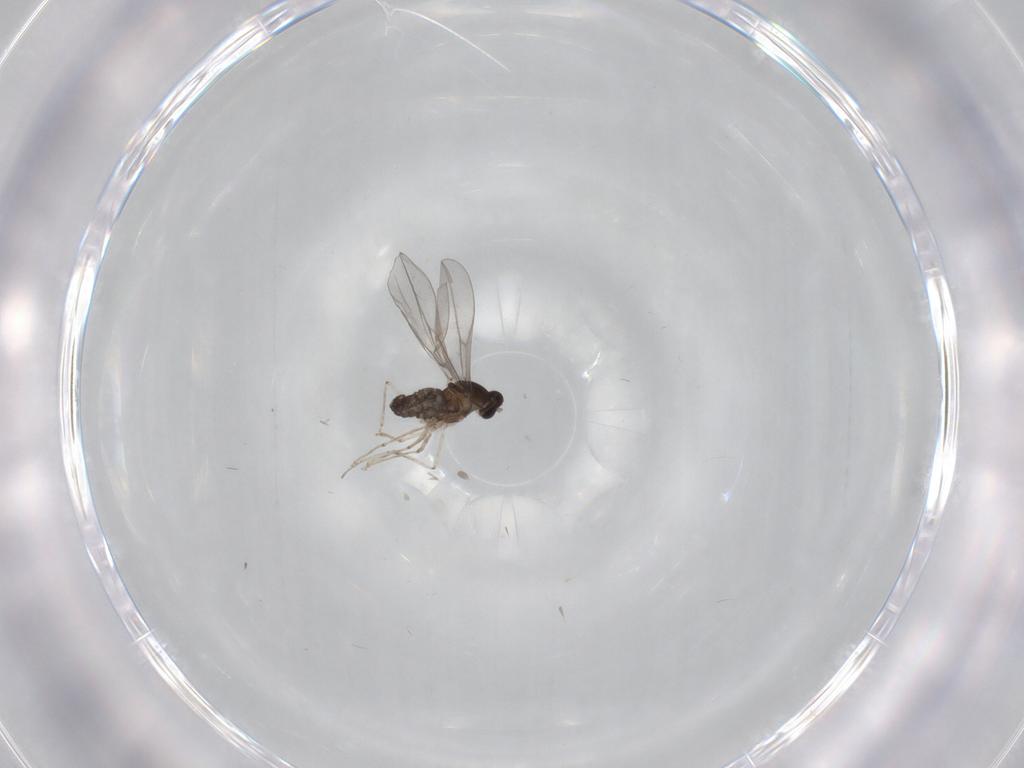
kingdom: Animalia
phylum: Arthropoda
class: Insecta
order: Diptera
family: Cecidomyiidae
